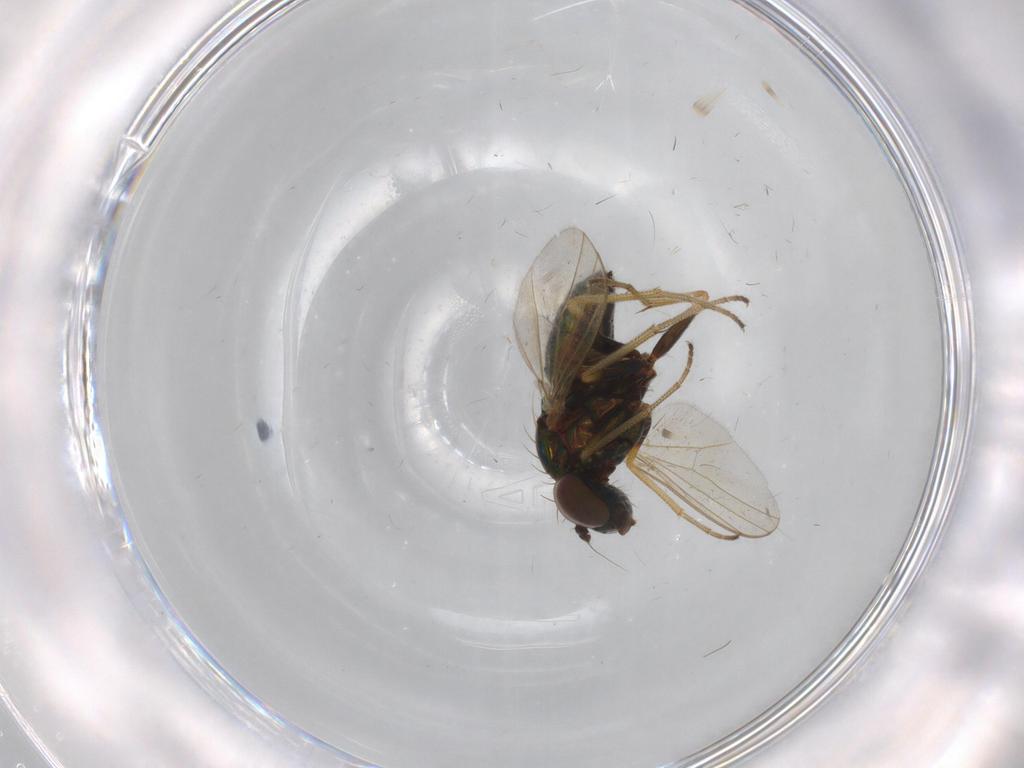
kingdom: Animalia
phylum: Arthropoda
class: Insecta
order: Diptera
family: Dolichopodidae
